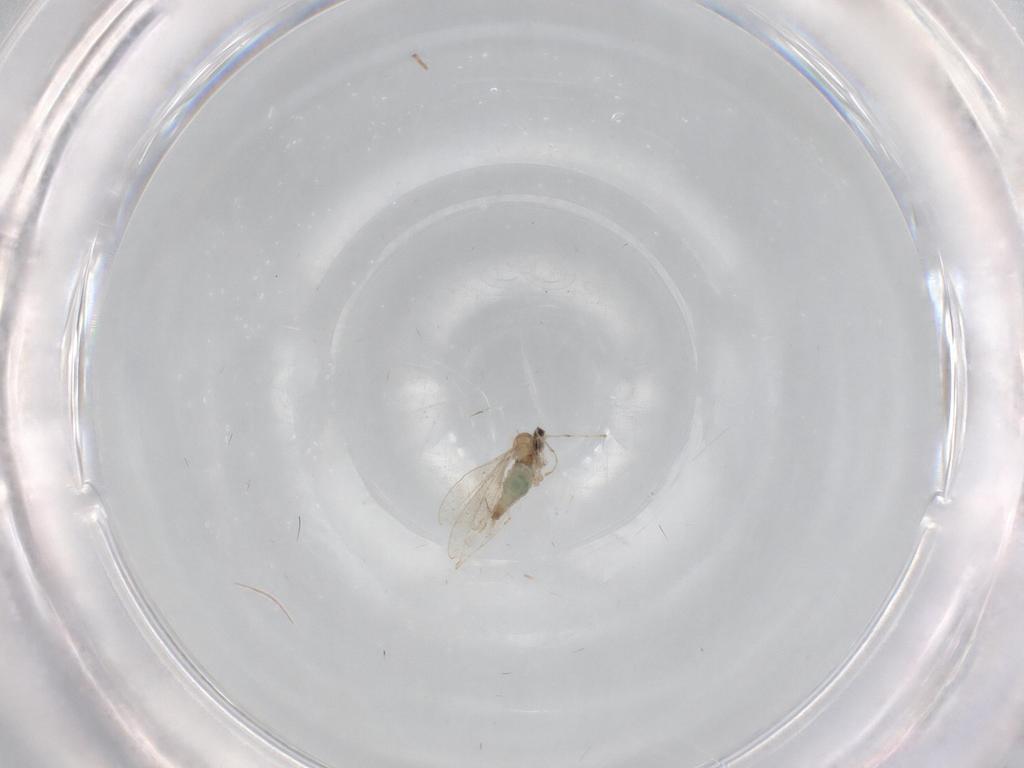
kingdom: Animalia
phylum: Arthropoda
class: Insecta
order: Diptera
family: Cecidomyiidae
